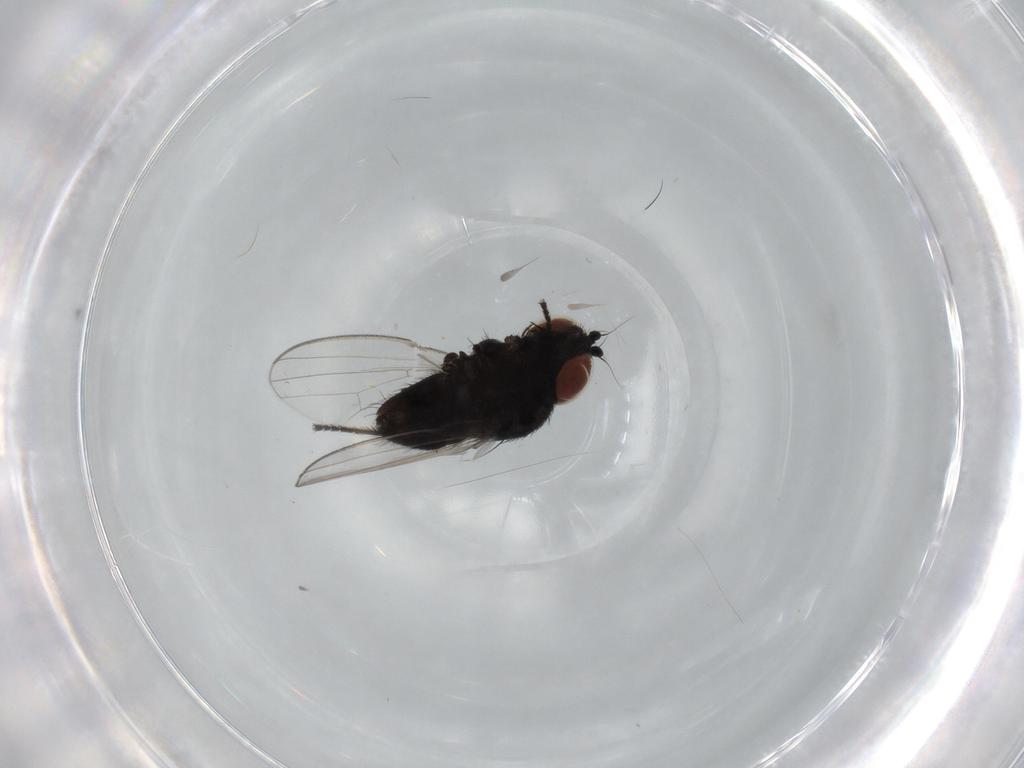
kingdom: Animalia
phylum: Arthropoda
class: Insecta
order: Diptera
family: Milichiidae
